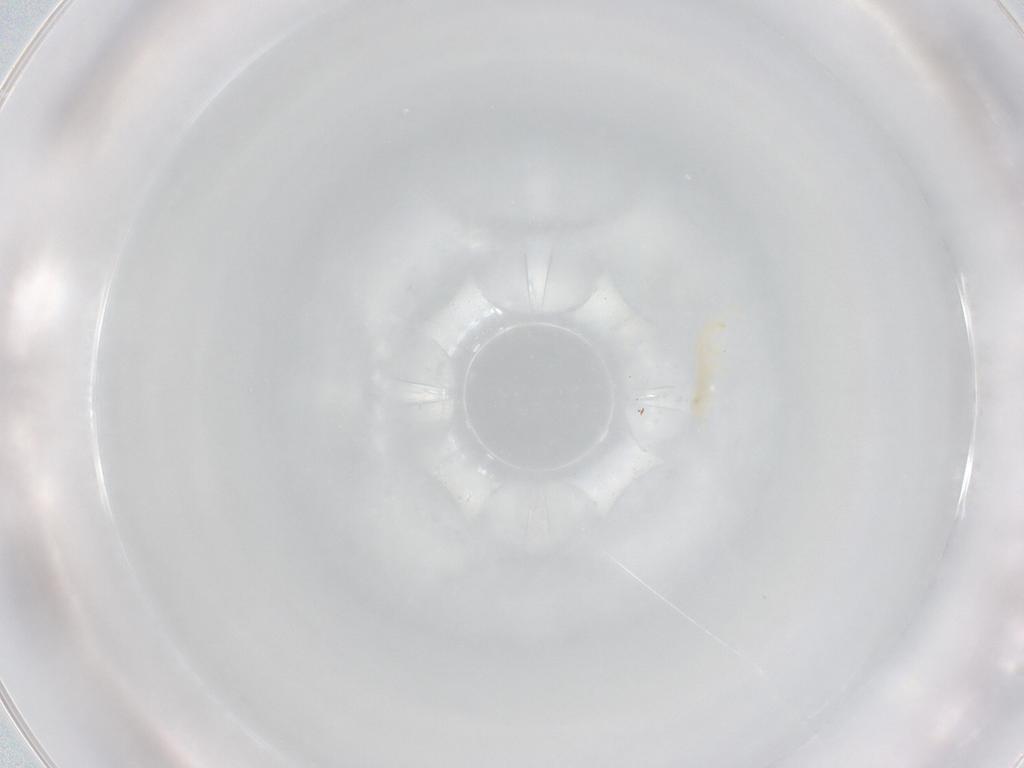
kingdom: Animalia
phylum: Arthropoda
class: Collembola
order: Entomobryomorpha
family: Isotomidae
